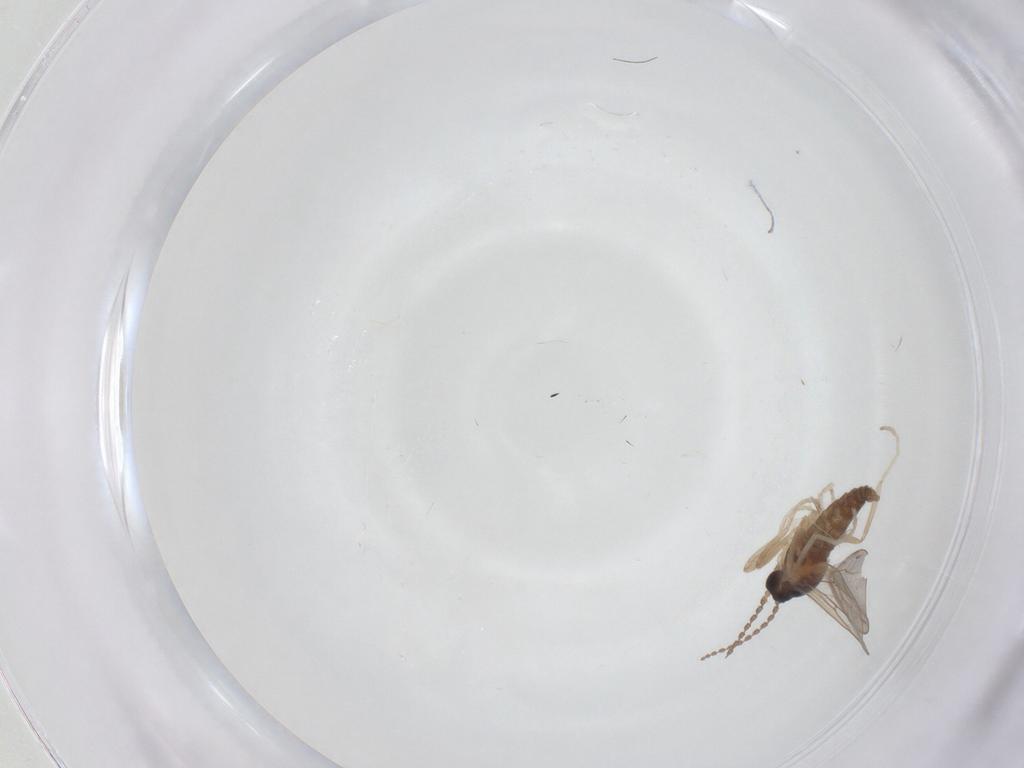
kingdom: Animalia
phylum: Arthropoda
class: Insecta
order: Diptera
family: Cecidomyiidae
